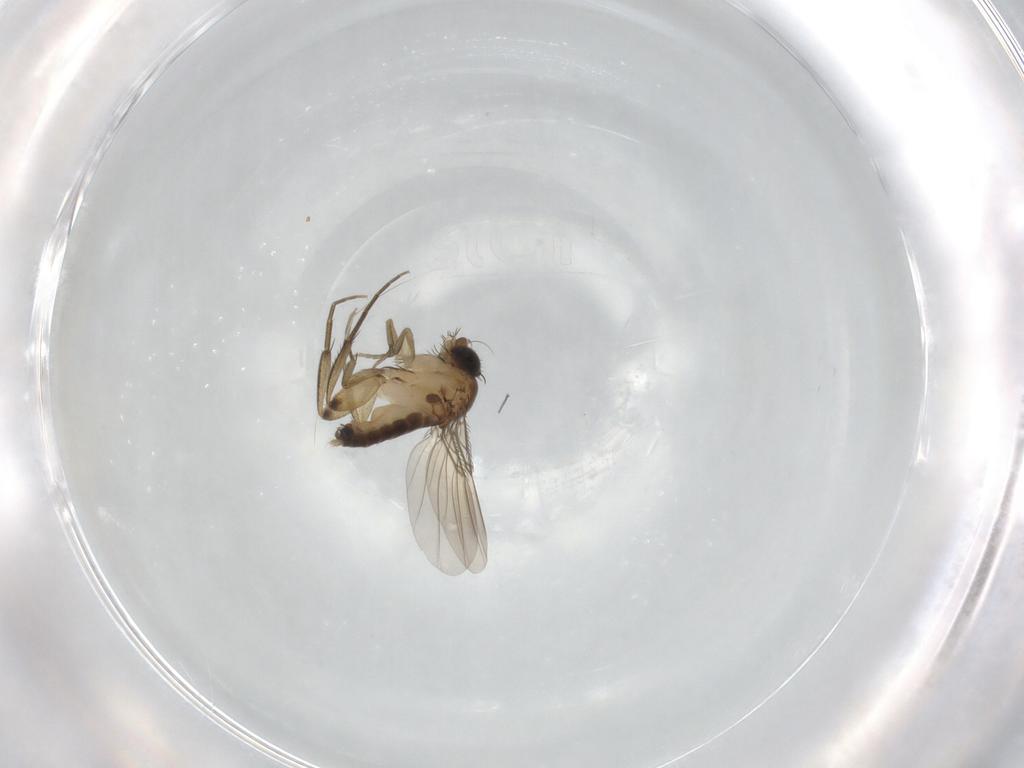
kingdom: Animalia
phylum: Arthropoda
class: Insecta
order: Diptera
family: Phoridae
